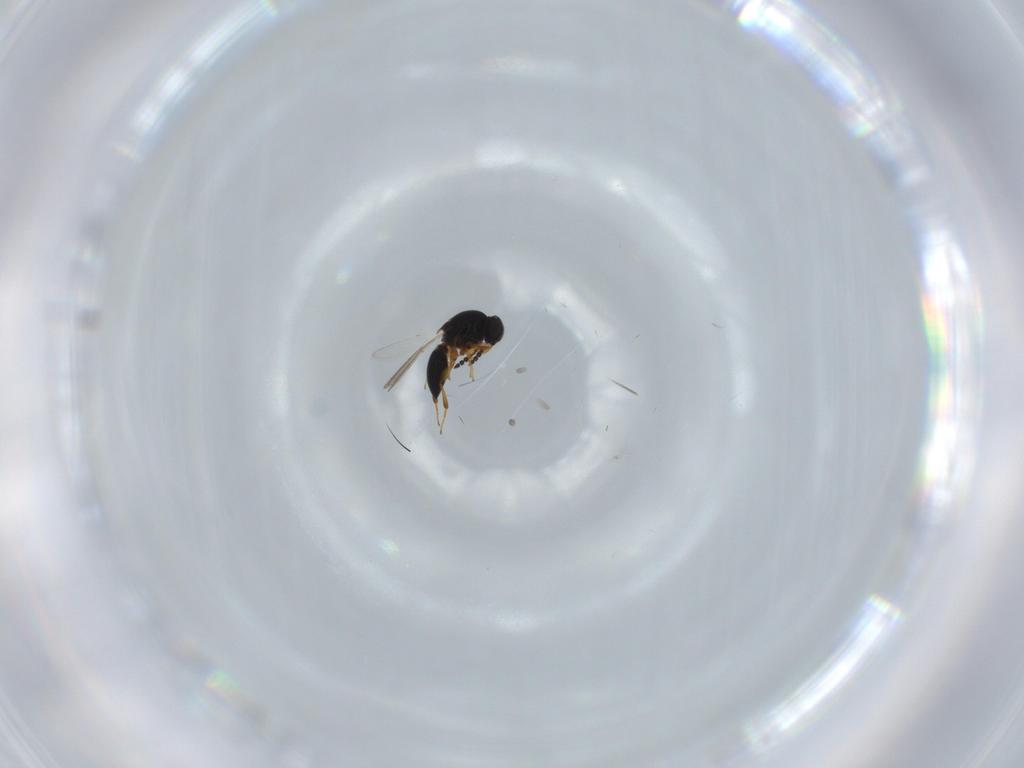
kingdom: Animalia
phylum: Arthropoda
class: Insecta
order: Hymenoptera
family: Platygastridae
